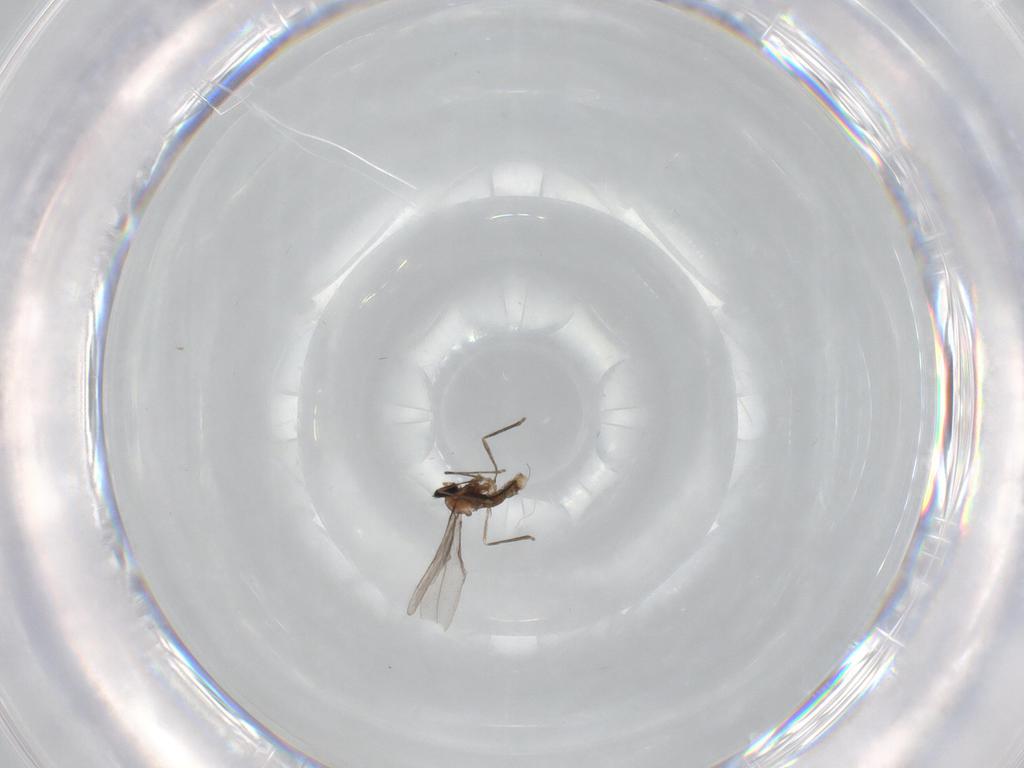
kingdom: Animalia
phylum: Arthropoda
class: Insecta
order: Diptera
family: Cecidomyiidae
